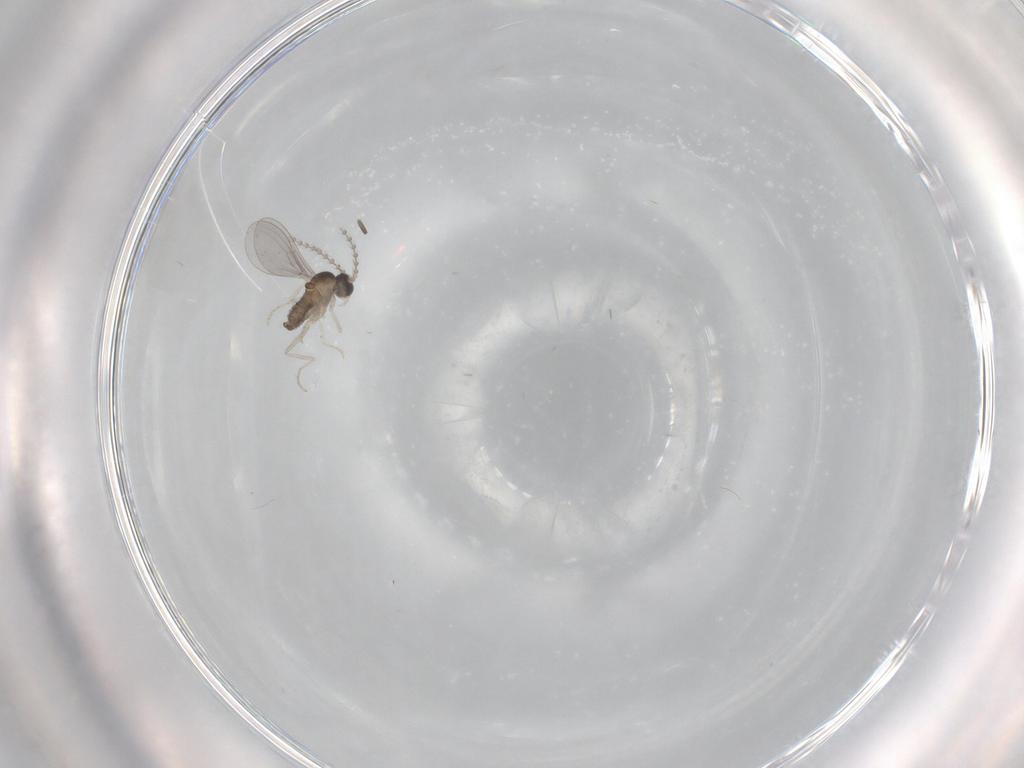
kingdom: Animalia
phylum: Arthropoda
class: Insecta
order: Diptera
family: Cecidomyiidae
